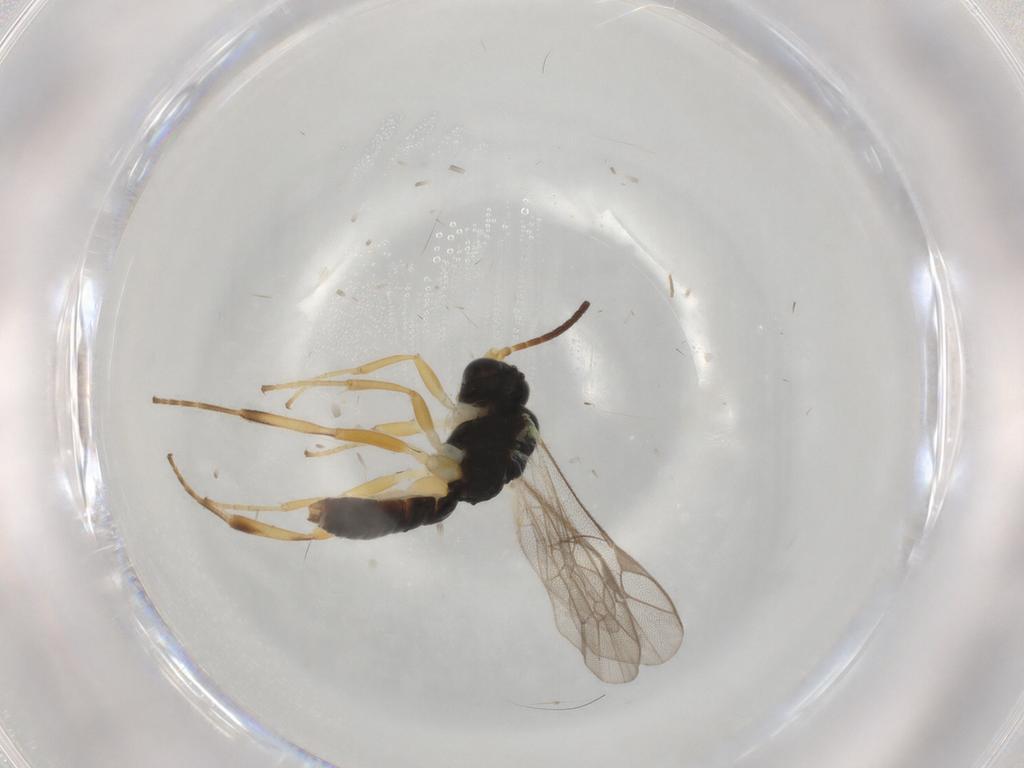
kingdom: Animalia
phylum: Arthropoda
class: Insecta
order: Hymenoptera
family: Ichneumonidae
